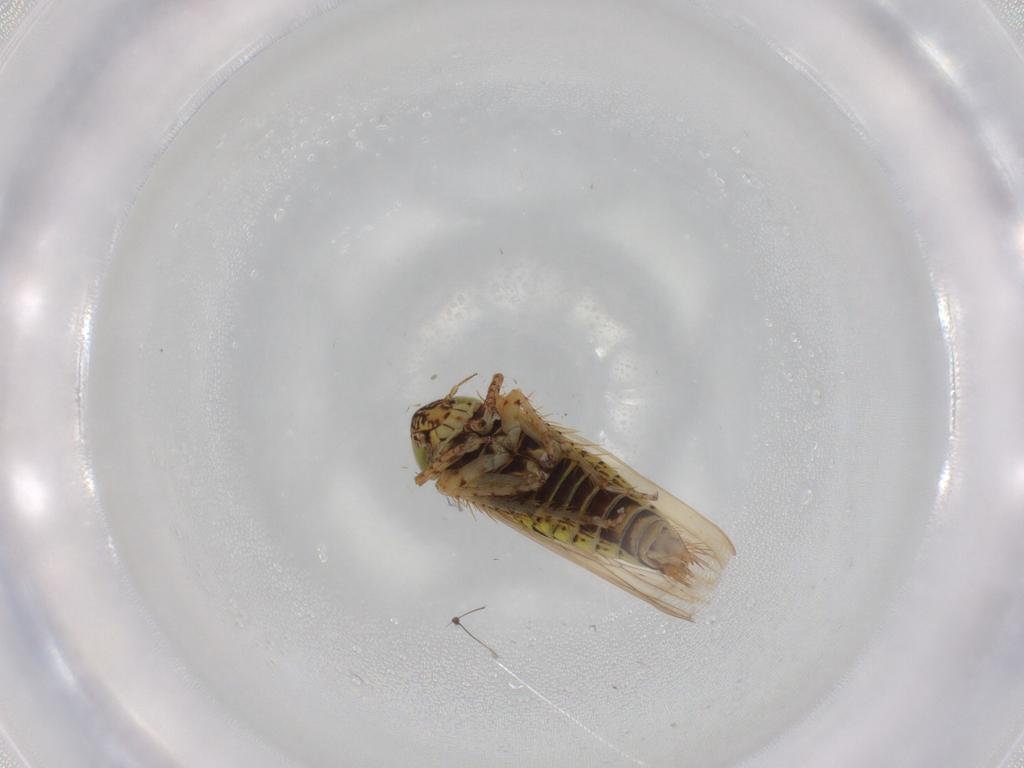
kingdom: Animalia
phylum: Arthropoda
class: Insecta
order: Hemiptera
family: Cicadellidae
